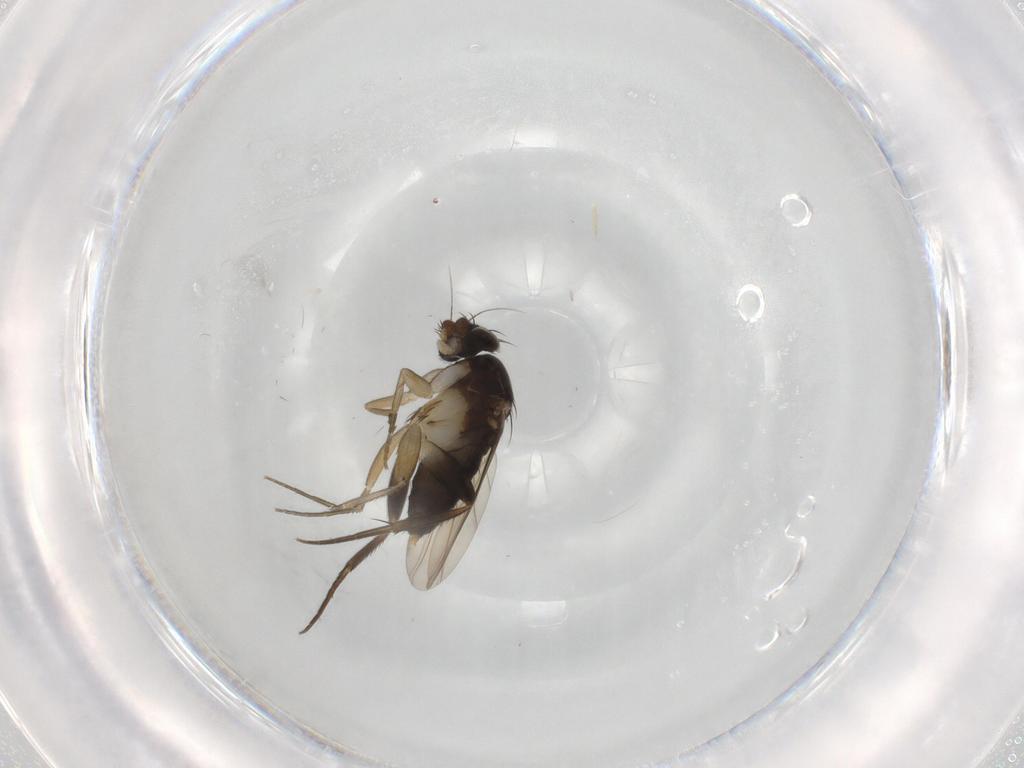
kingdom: Animalia
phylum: Arthropoda
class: Insecta
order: Diptera
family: Phoridae
